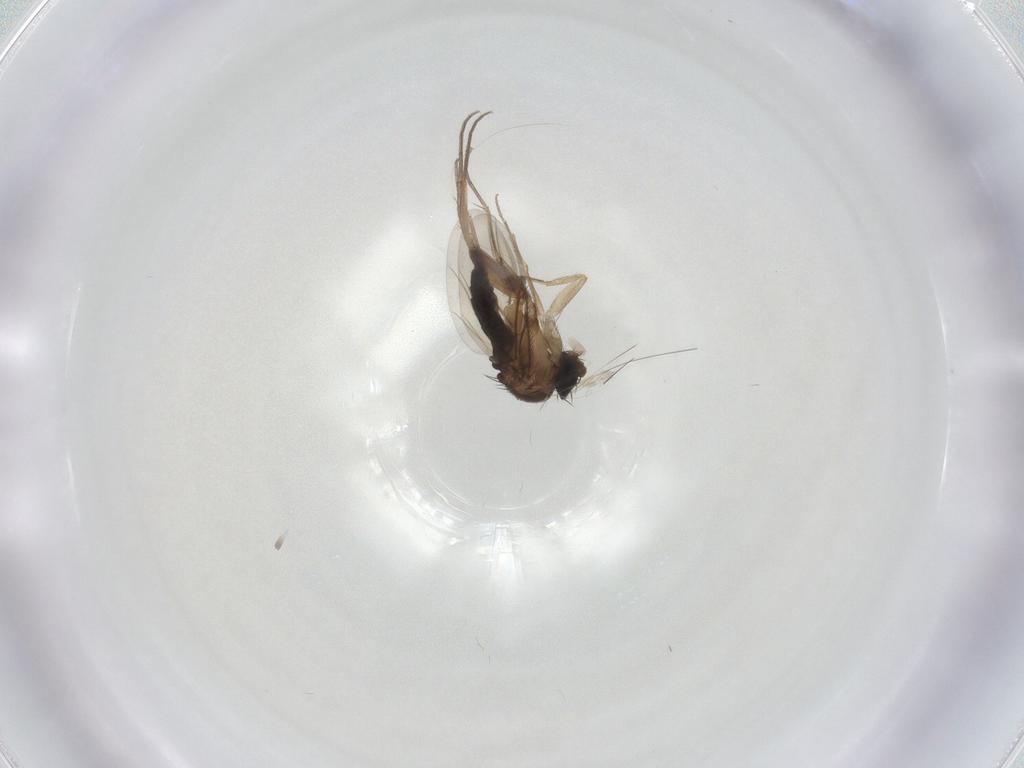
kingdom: Animalia
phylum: Arthropoda
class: Insecta
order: Diptera
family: Phoridae
